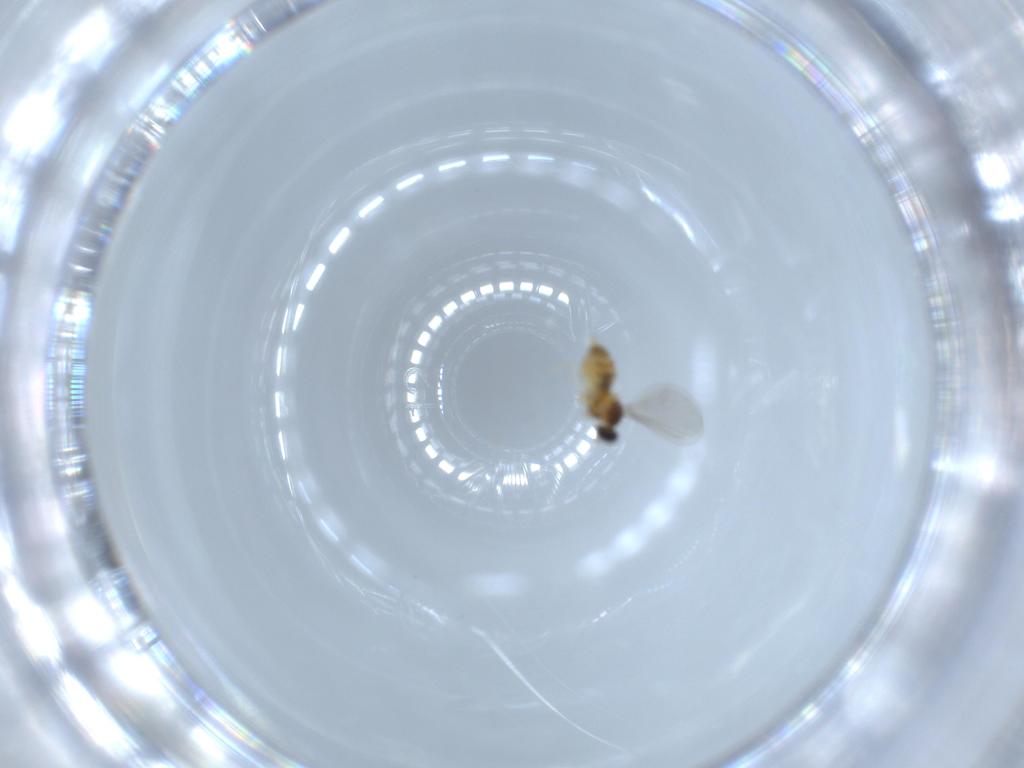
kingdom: Animalia
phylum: Arthropoda
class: Insecta
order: Diptera
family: Cecidomyiidae
